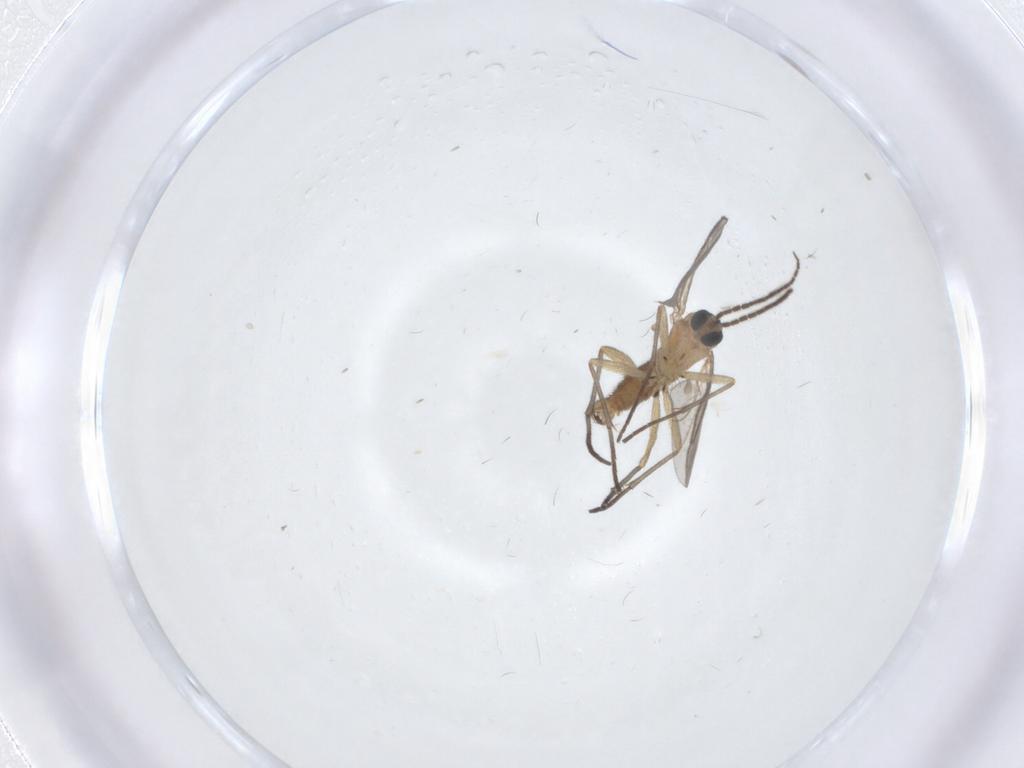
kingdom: Animalia
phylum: Arthropoda
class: Insecta
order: Diptera
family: Sciaridae
